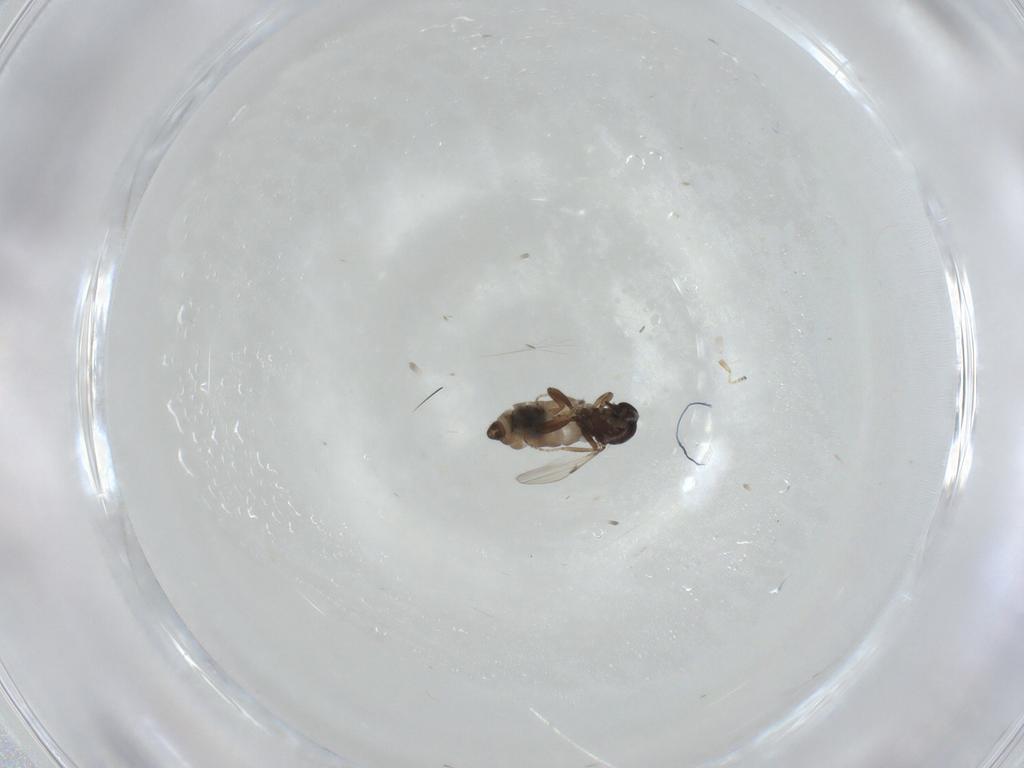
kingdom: Animalia
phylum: Arthropoda
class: Insecta
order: Diptera
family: Ceratopogonidae
